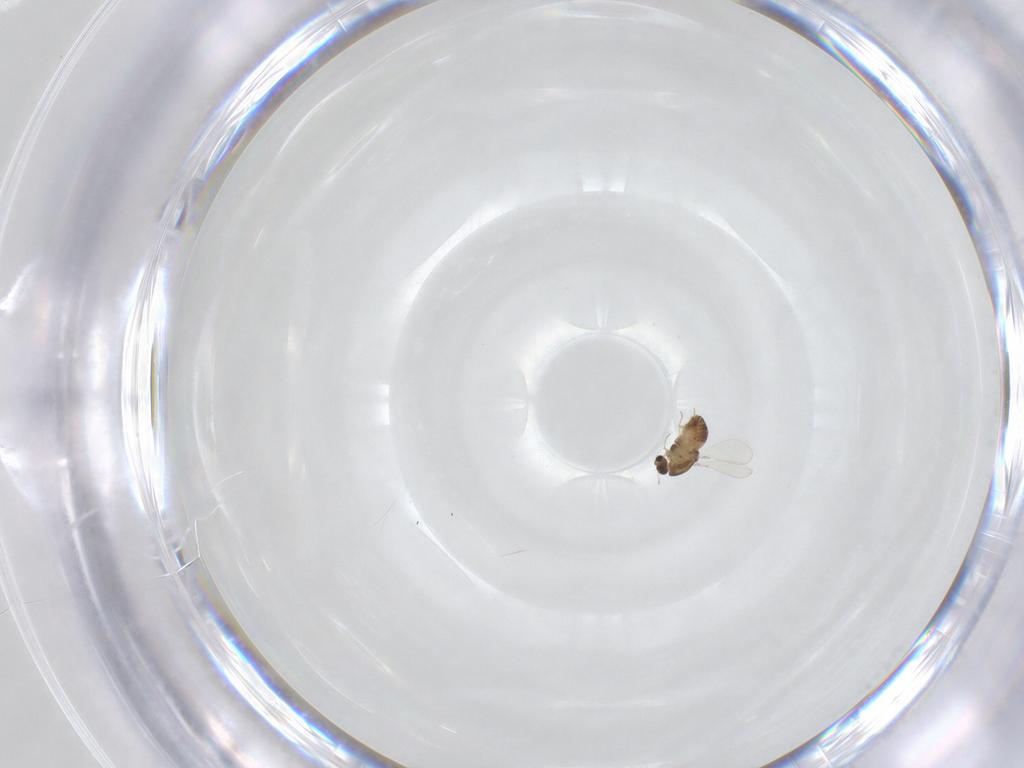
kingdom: Animalia
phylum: Arthropoda
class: Insecta
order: Diptera
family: Chironomidae
